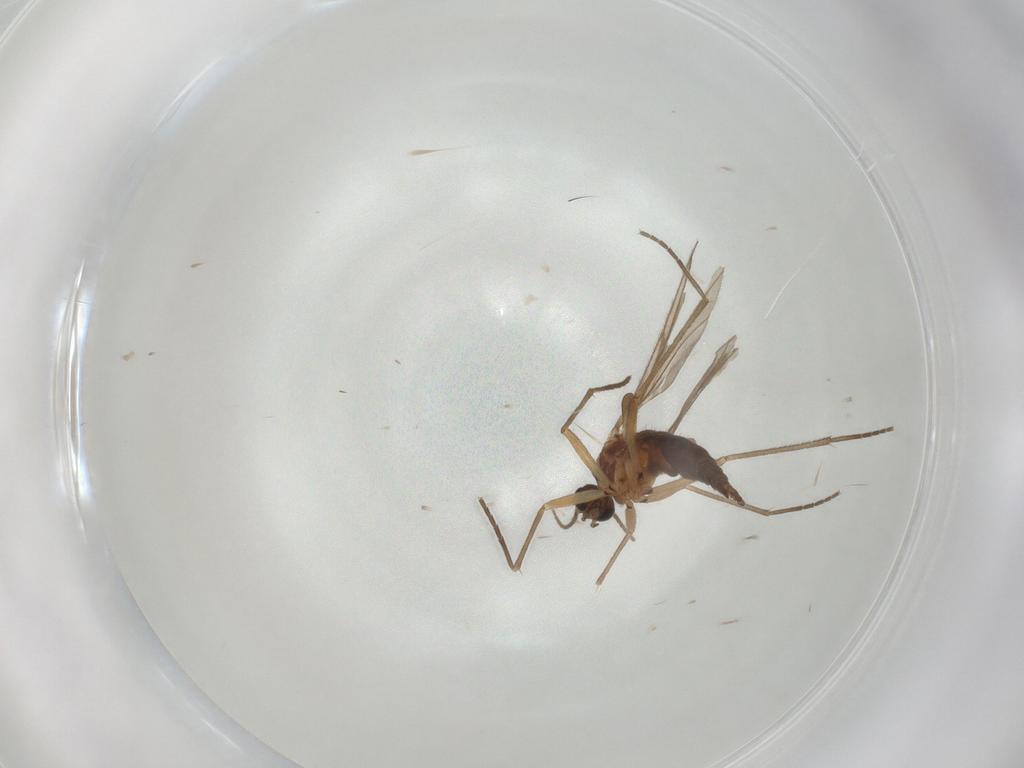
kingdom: Animalia
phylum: Arthropoda
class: Insecta
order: Diptera
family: Sciaridae
